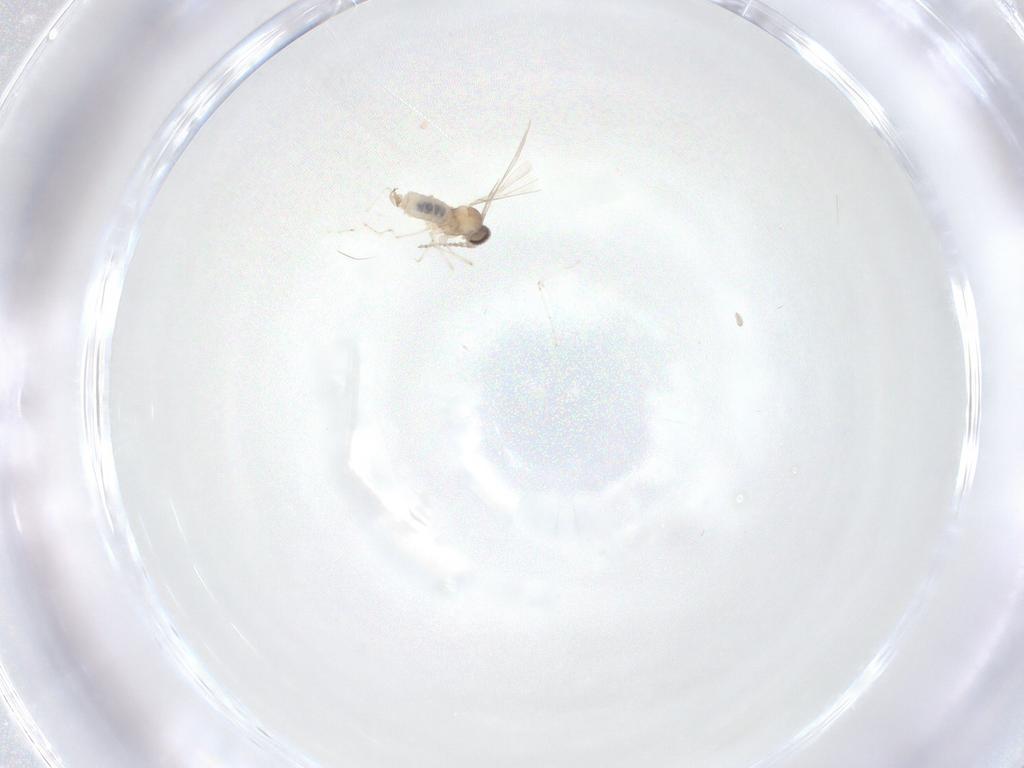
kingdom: Animalia
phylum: Arthropoda
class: Insecta
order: Diptera
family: Cecidomyiidae
